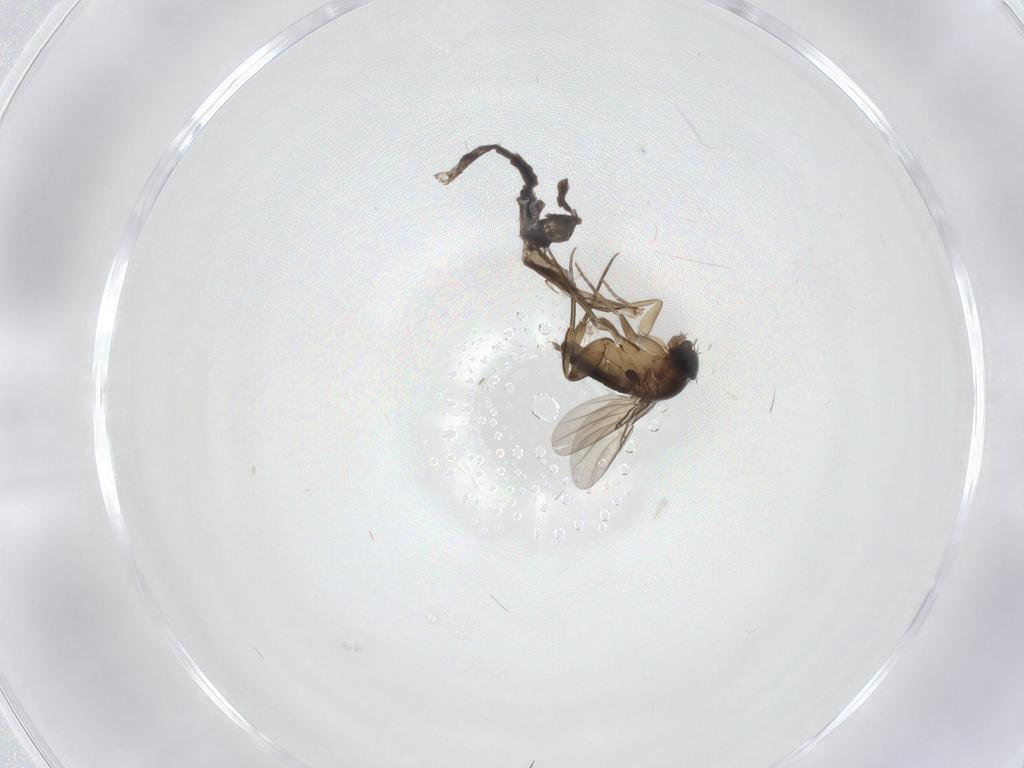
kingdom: Animalia
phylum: Arthropoda
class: Insecta
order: Diptera
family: Phoridae
